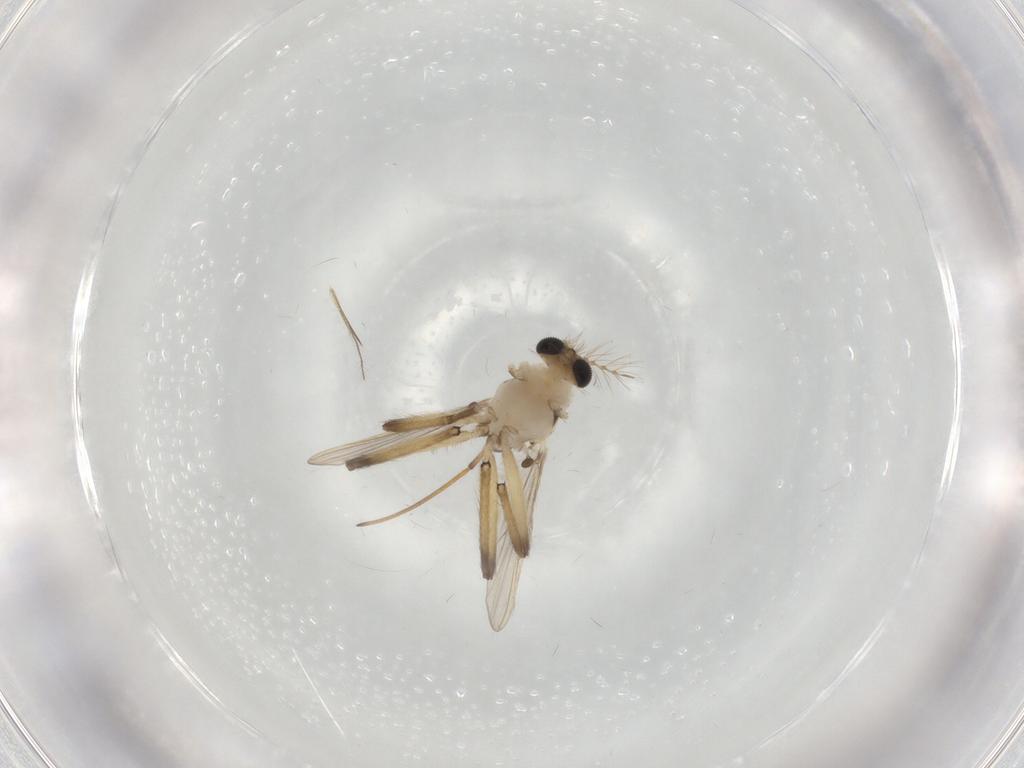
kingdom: Animalia
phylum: Arthropoda
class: Insecta
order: Diptera
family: Chironomidae
